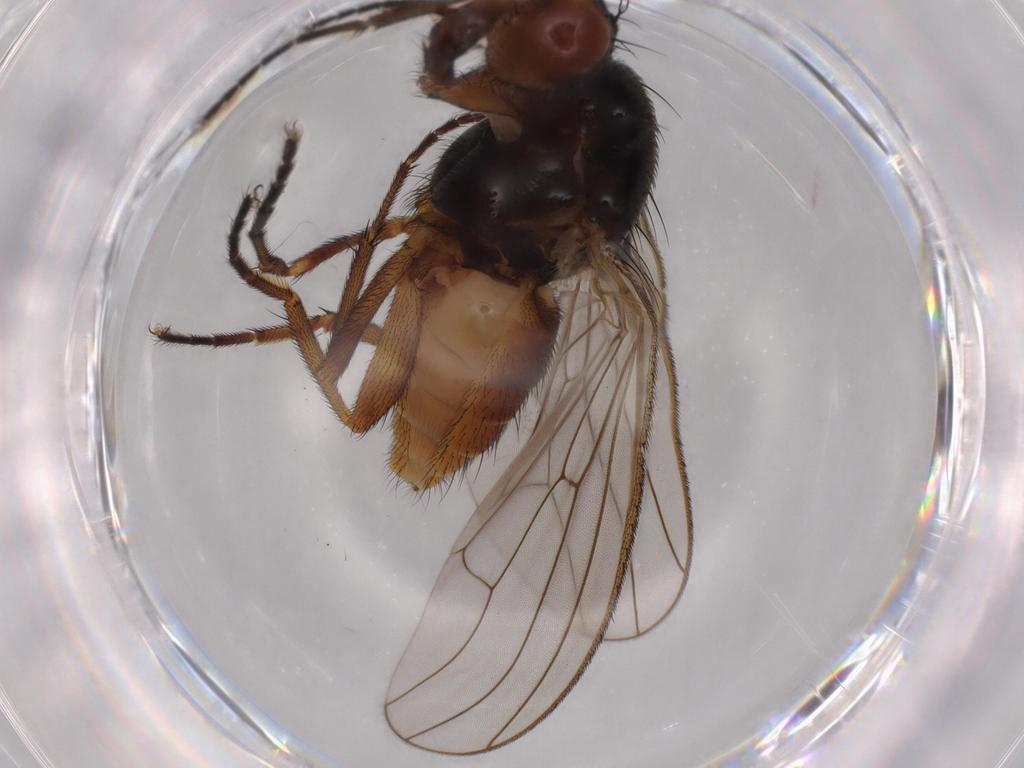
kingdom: Animalia
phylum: Arthropoda
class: Insecta
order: Diptera
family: Heleomyzidae
